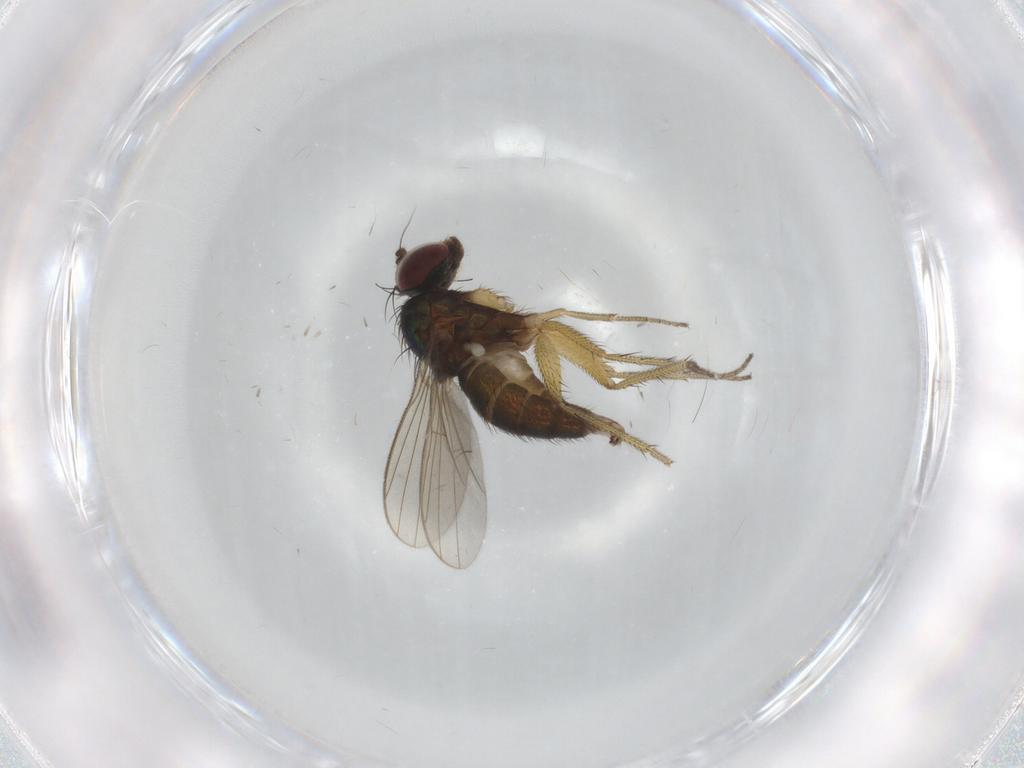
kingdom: Animalia
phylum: Arthropoda
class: Insecta
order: Diptera
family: Dolichopodidae
